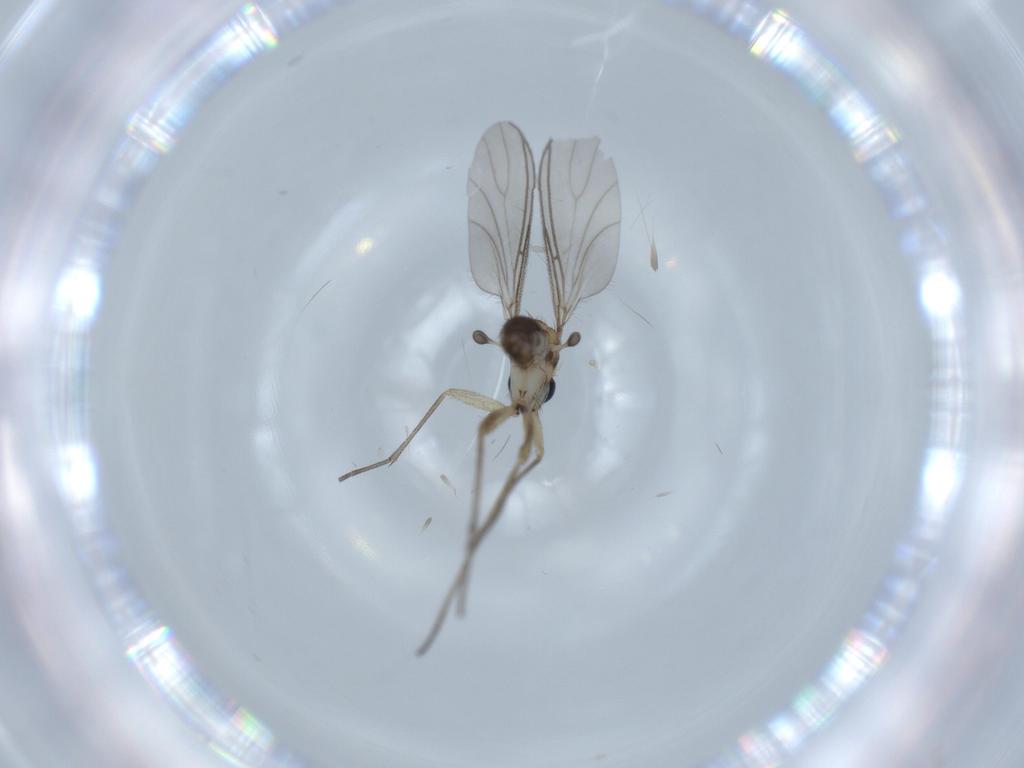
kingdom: Animalia
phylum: Arthropoda
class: Insecta
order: Diptera
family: Sciaridae
